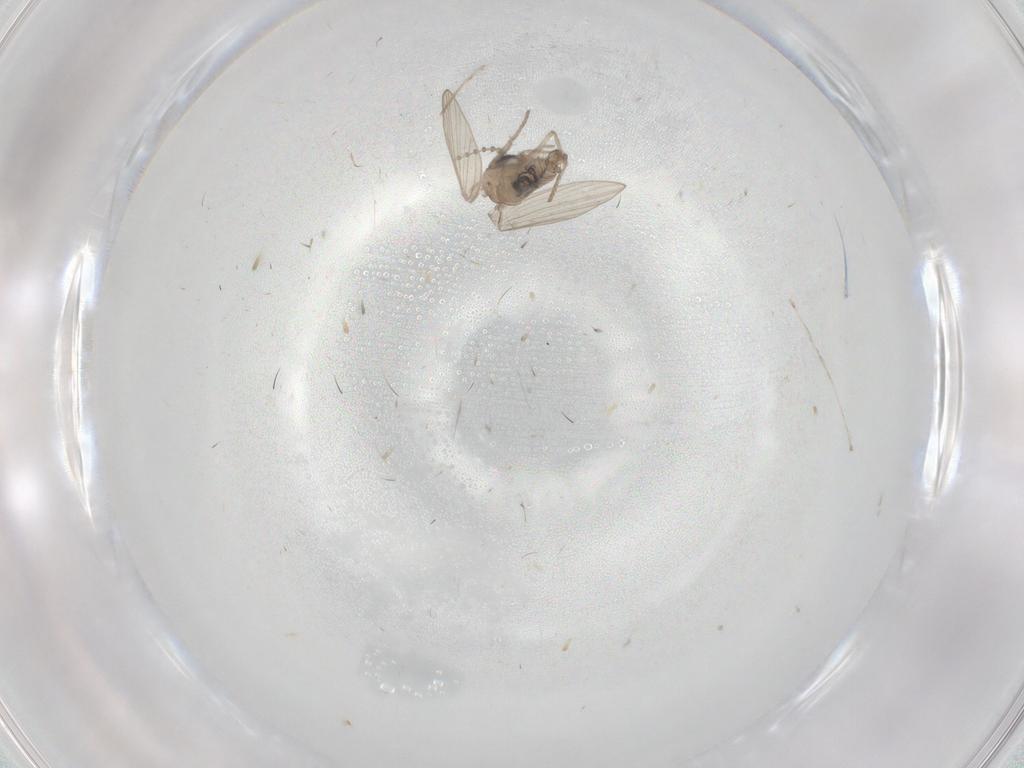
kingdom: Animalia
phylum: Arthropoda
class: Insecta
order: Diptera
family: Psychodidae
